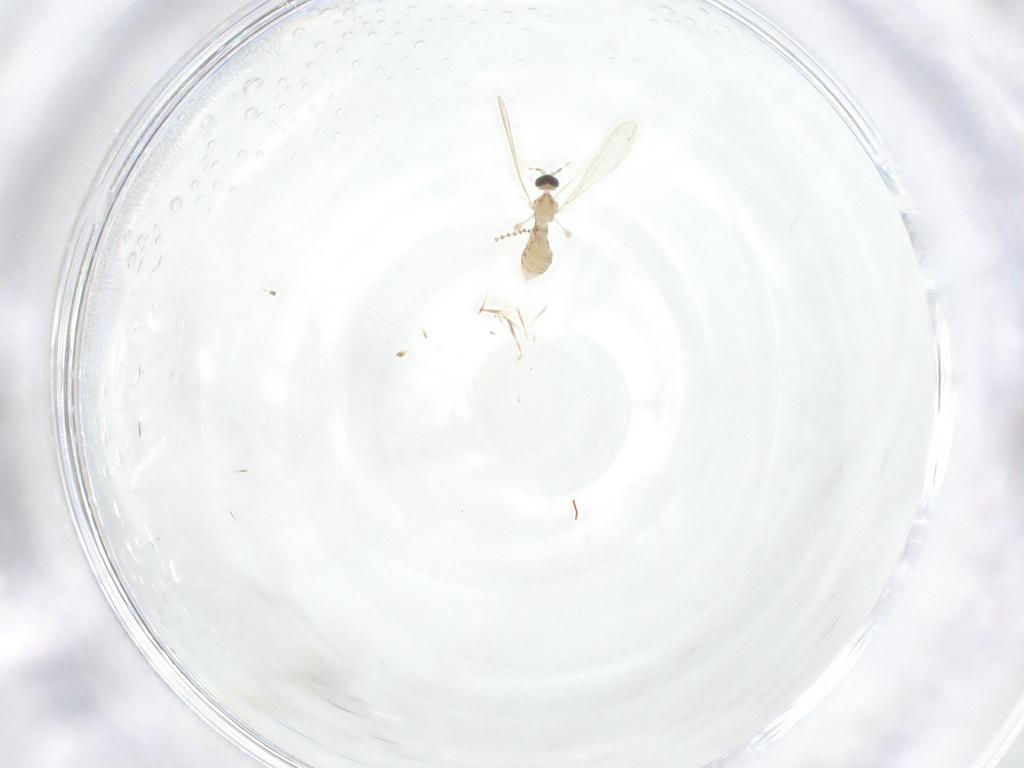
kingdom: Animalia
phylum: Arthropoda
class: Insecta
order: Diptera
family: Cecidomyiidae
